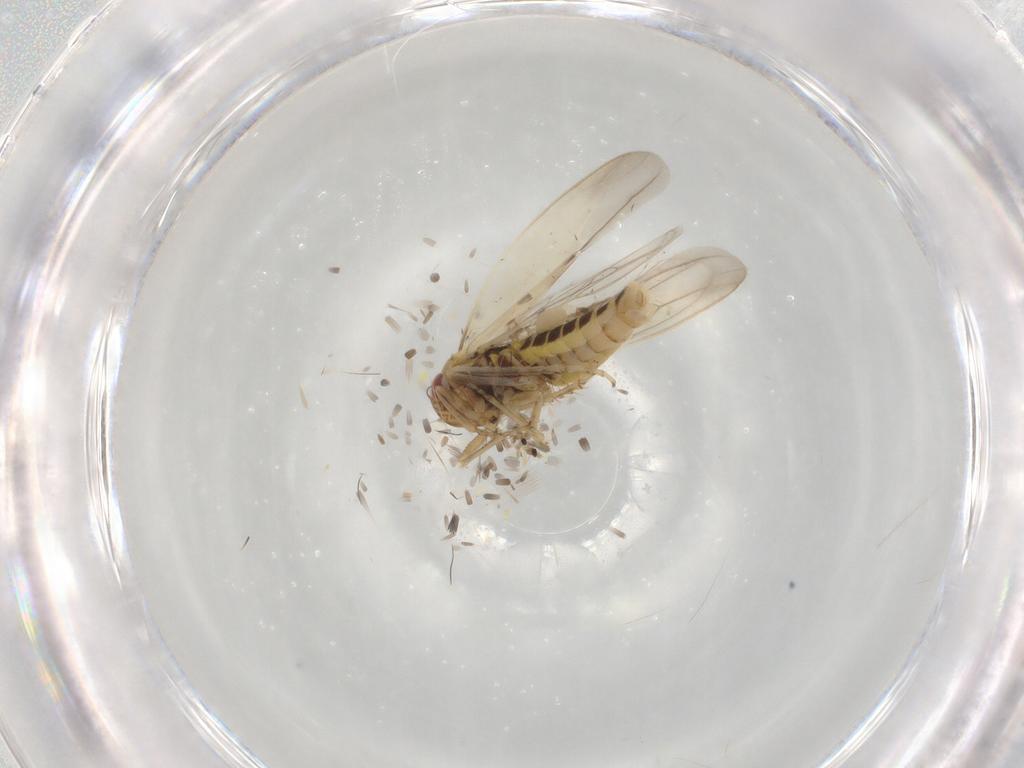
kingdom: Animalia
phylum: Arthropoda
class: Insecta
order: Hemiptera
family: Cicadellidae
